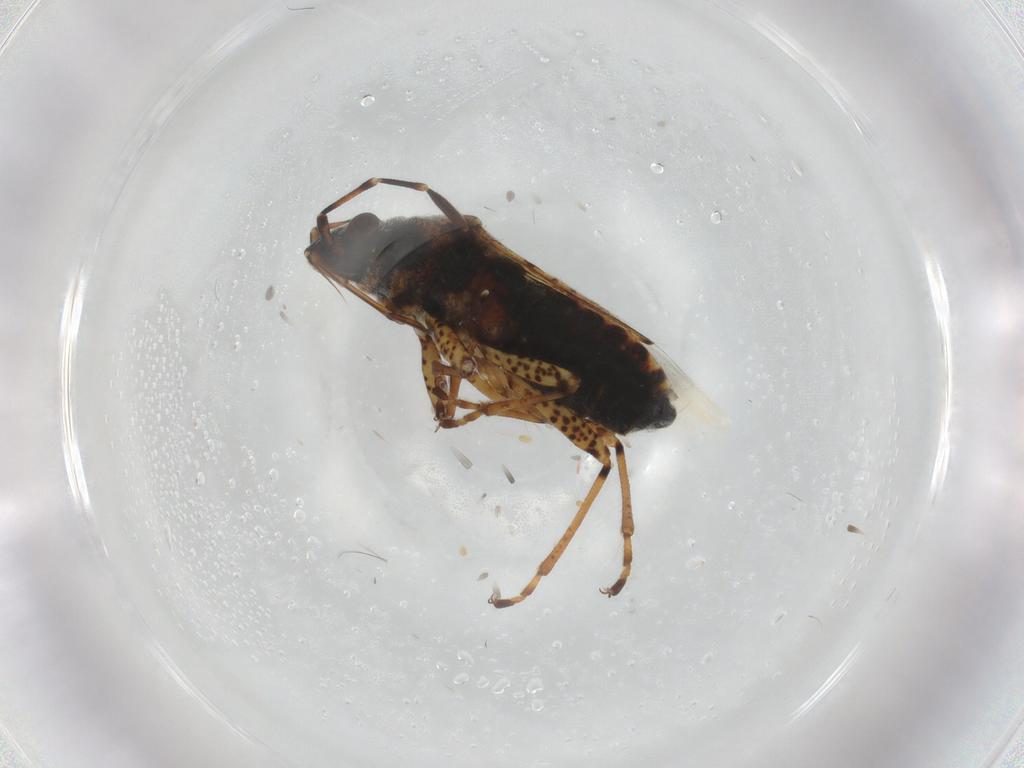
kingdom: Animalia
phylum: Arthropoda
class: Insecta
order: Hemiptera
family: Lygaeidae
